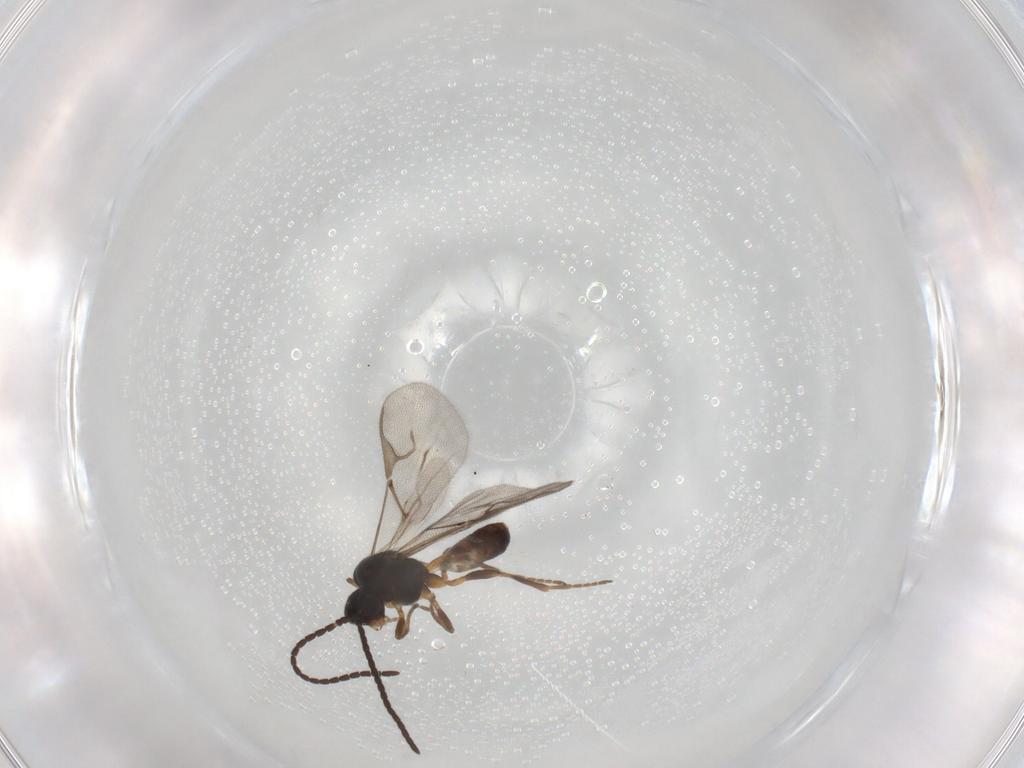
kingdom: Animalia
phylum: Arthropoda
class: Insecta
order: Hymenoptera
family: Braconidae
